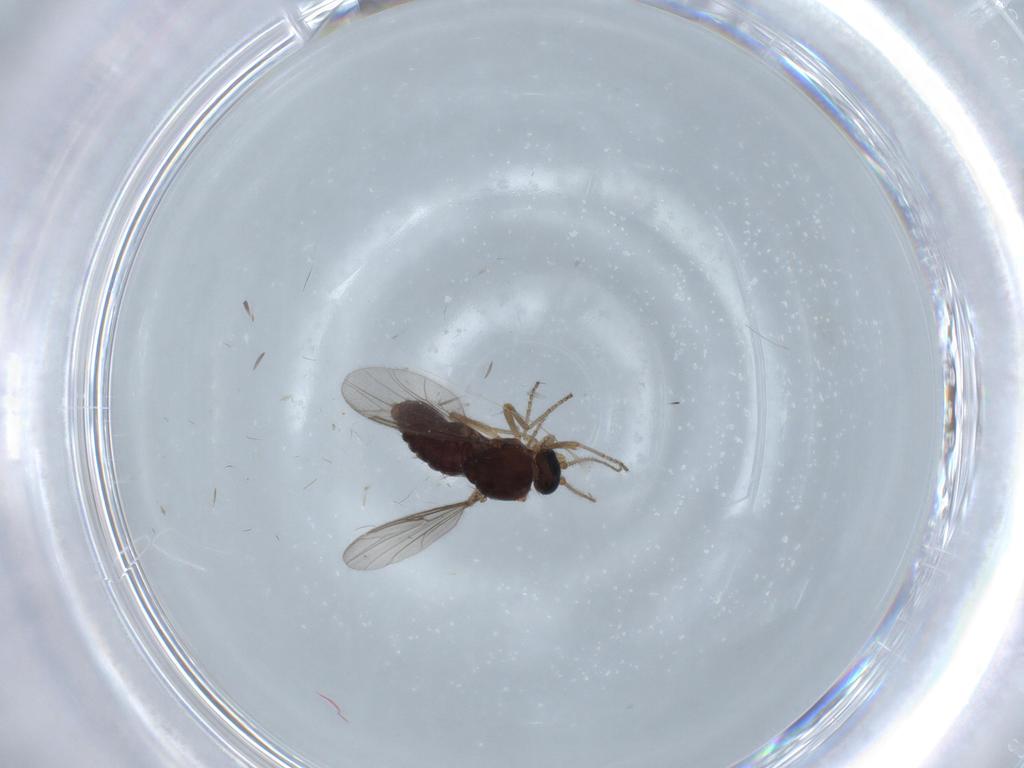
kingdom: Animalia
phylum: Arthropoda
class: Insecta
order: Diptera
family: Ceratopogonidae
